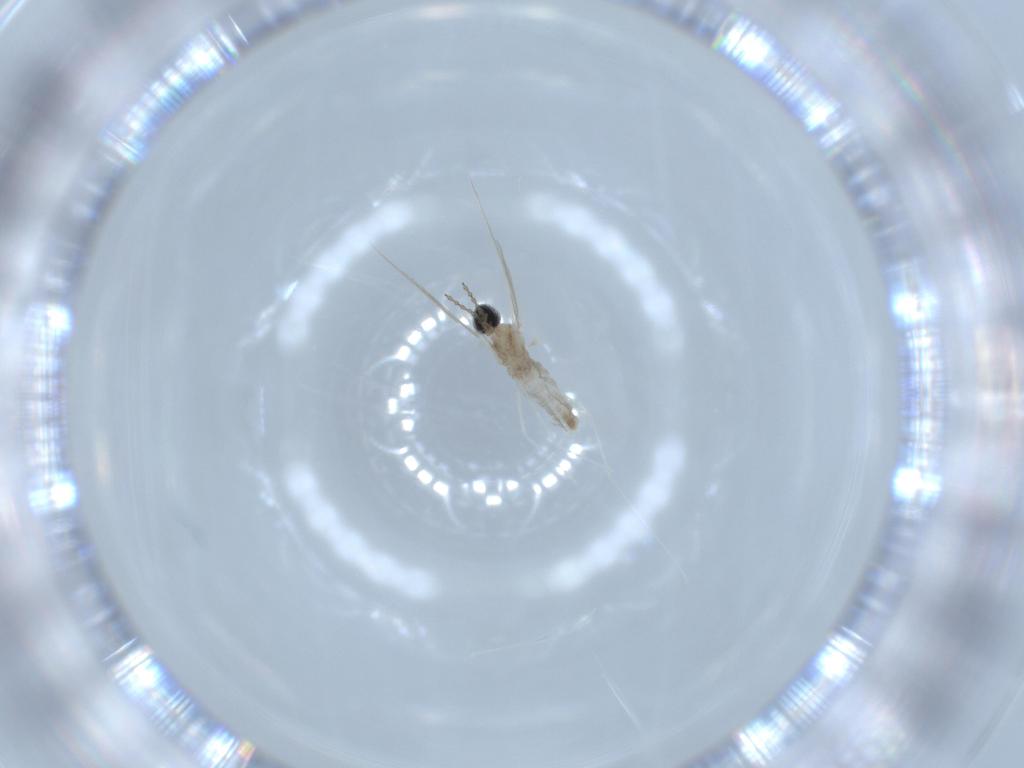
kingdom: Animalia
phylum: Arthropoda
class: Insecta
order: Diptera
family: Cecidomyiidae
